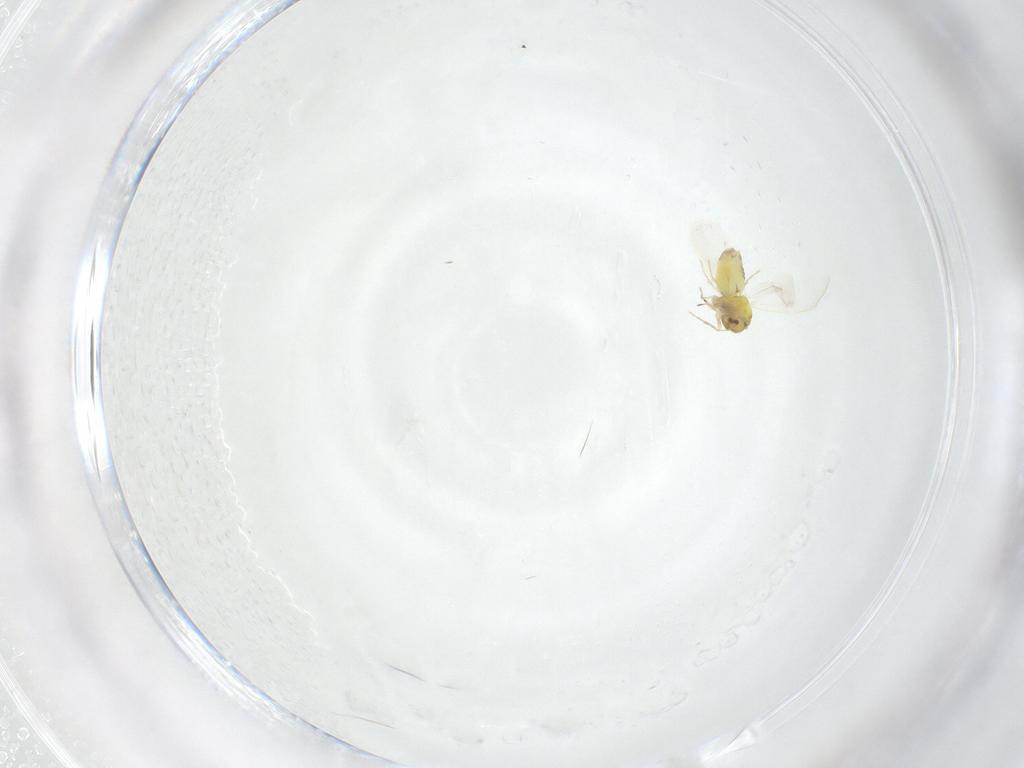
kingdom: Animalia
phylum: Arthropoda
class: Insecta
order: Hemiptera
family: Aleyrodidae
